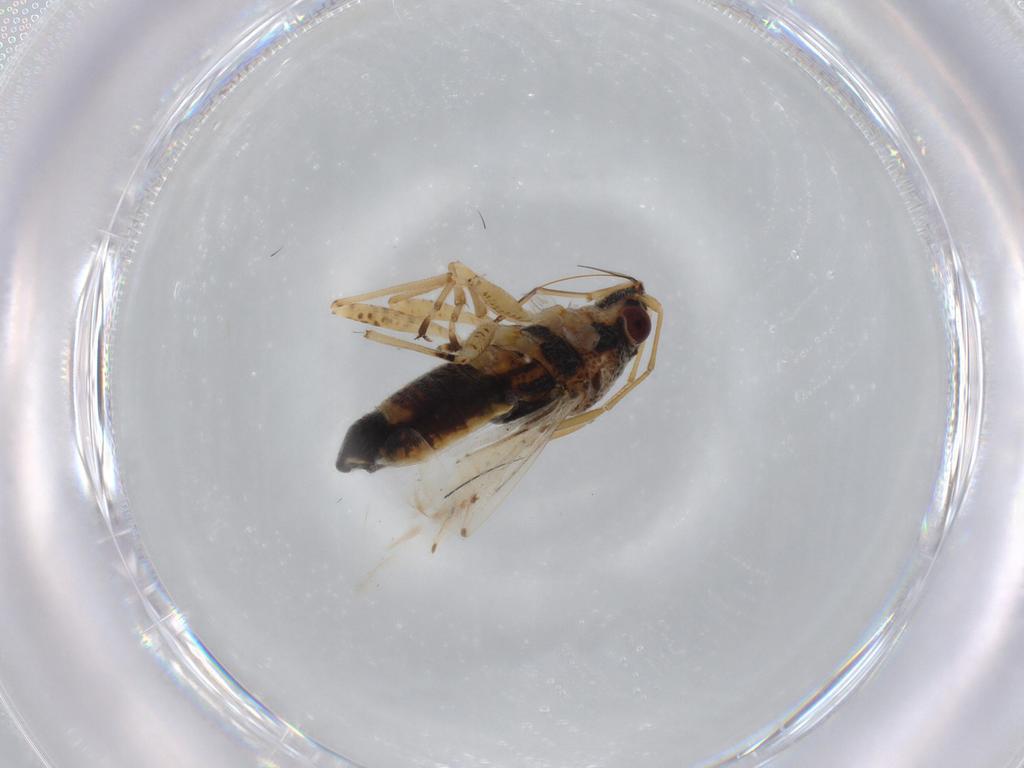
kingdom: Animalia
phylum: Arthropoda
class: Insecta
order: Hemiptera
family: Lygaeidae
